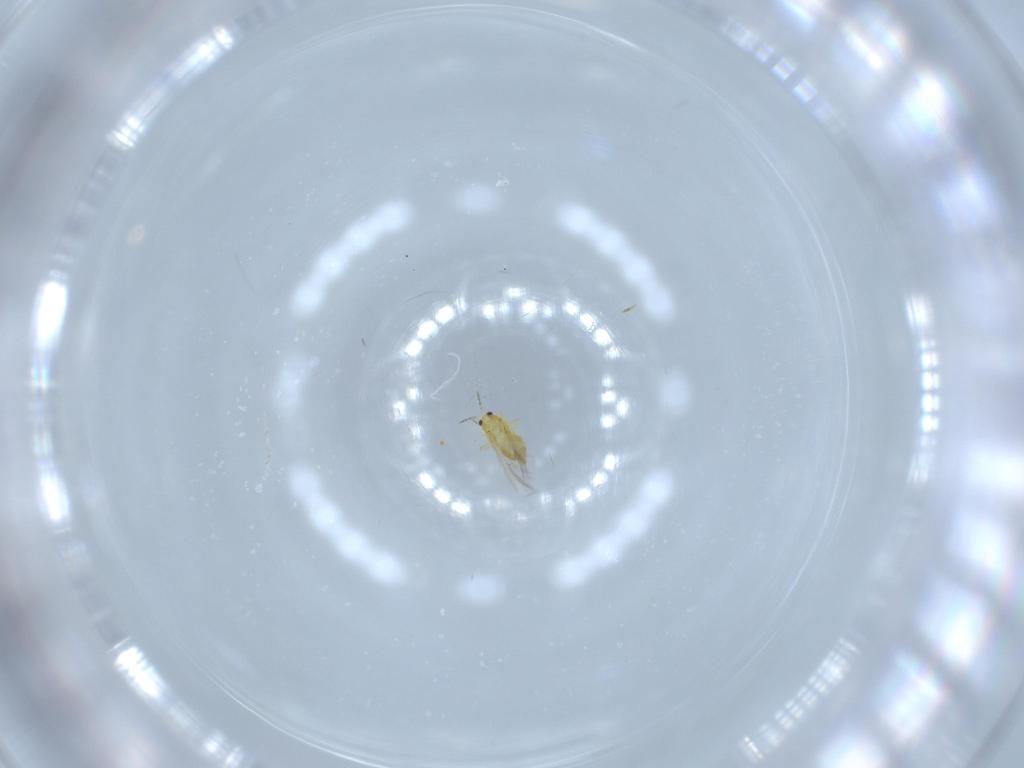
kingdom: Animalia
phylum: Arthropoda
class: Insecta
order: Thysanoptera
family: Thripidae
